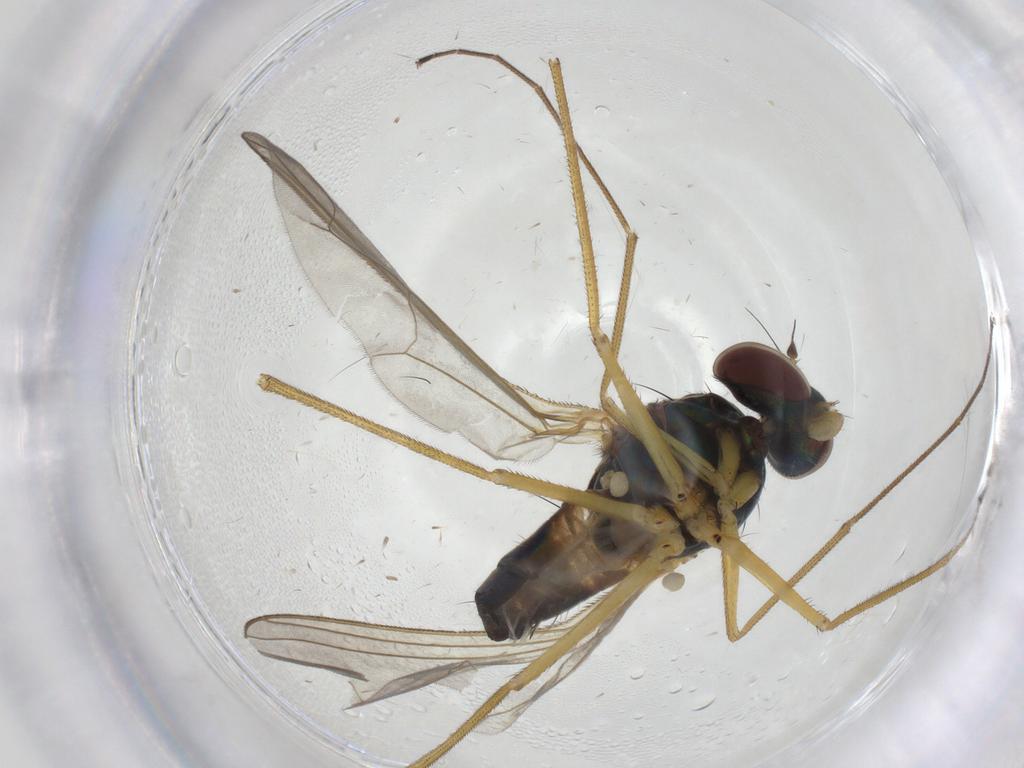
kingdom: Animalia
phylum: Arthropoda
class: Insecta
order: Diptera
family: Dolichopodidae
